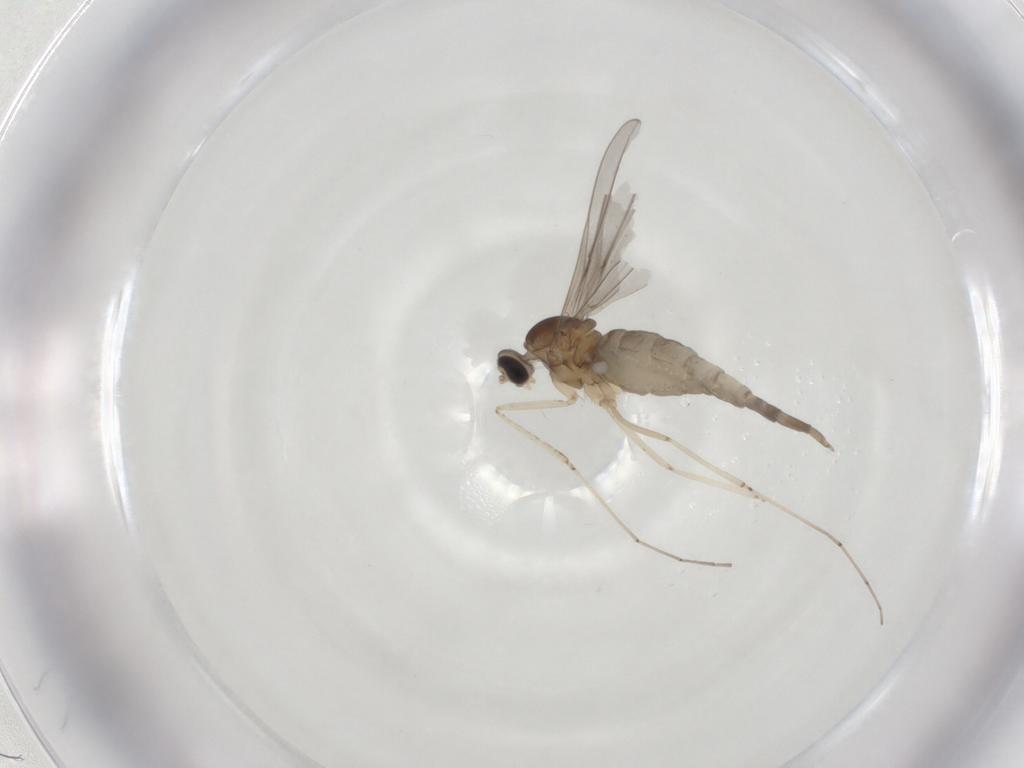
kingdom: Animalia
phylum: Arthropoda
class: Insecta
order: Diptera
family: Cecidomyiidae
